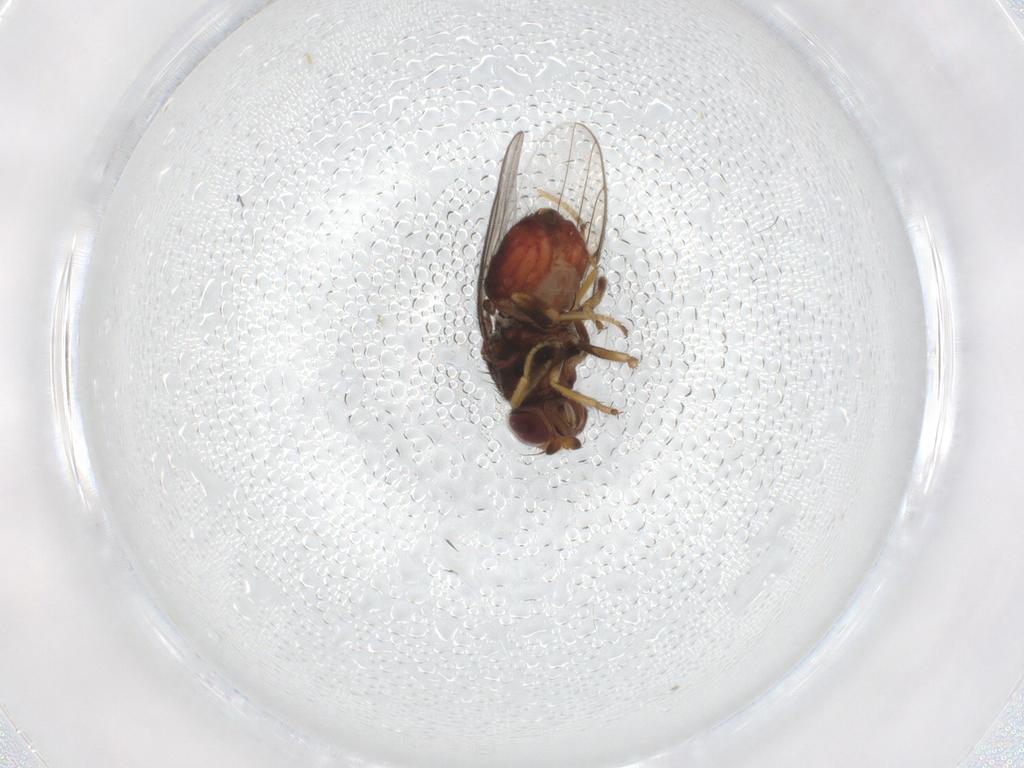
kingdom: Animalia
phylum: Arthropoda
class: Insecta
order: Diptera
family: Chloropidae
